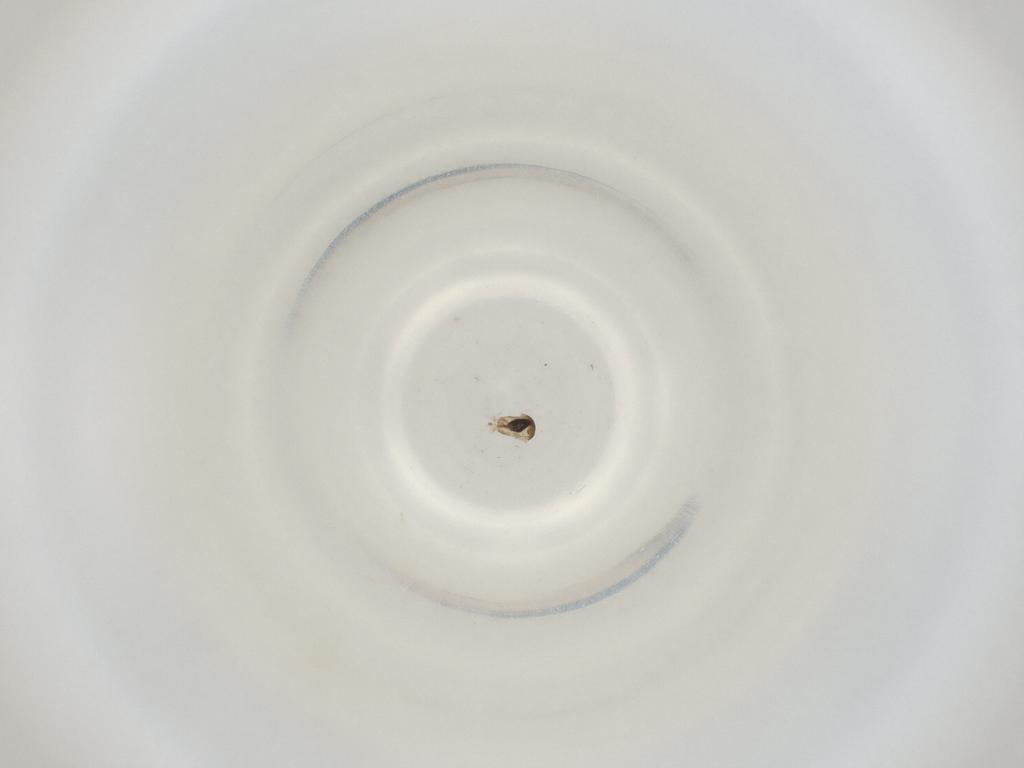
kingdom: Animalia
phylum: Arthropoda
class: Insecta
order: Diptera
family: Cecidomyiidae
